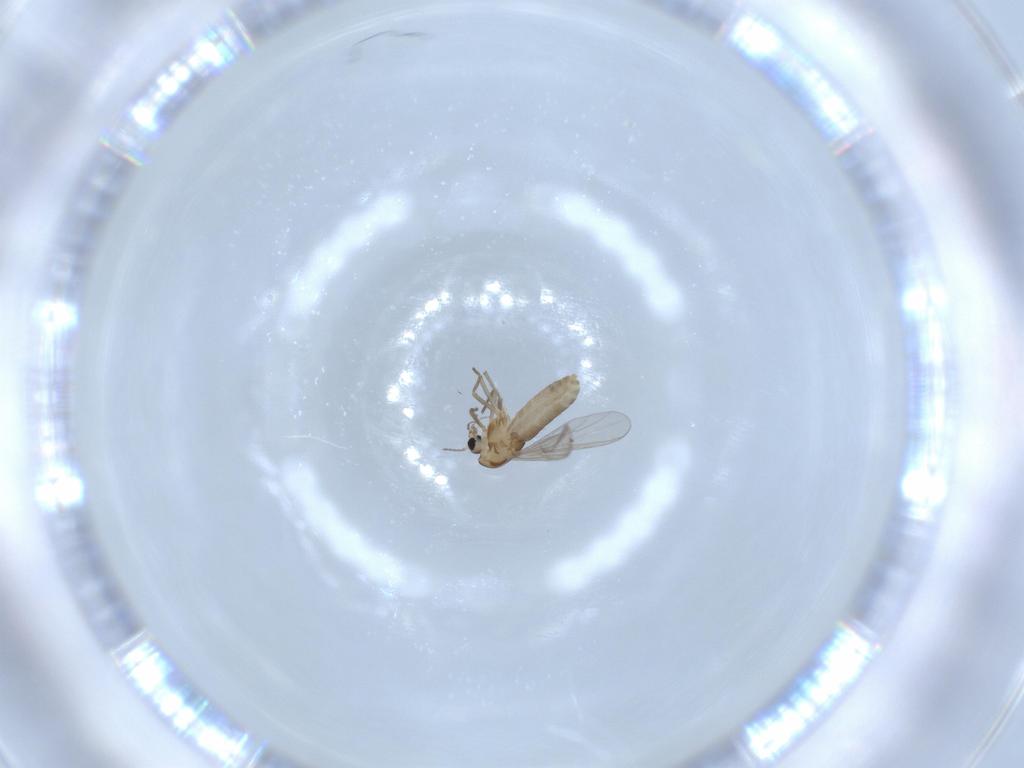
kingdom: Animalia
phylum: Arthropoda
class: Insecta
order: Diptera
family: Chironomidae
